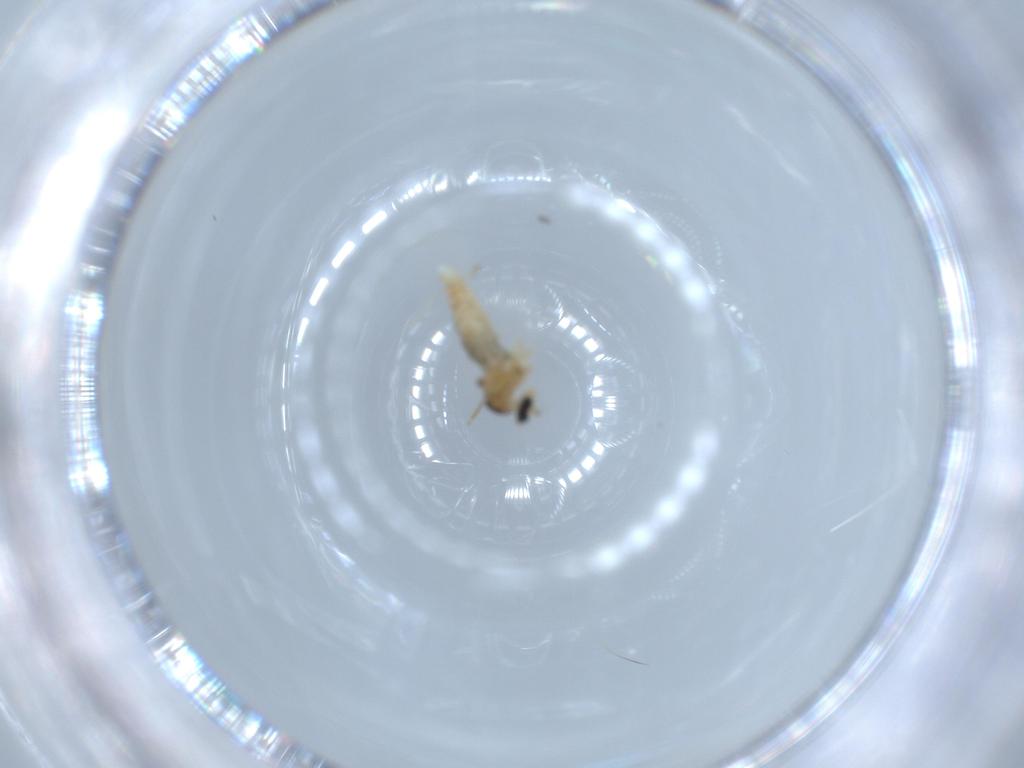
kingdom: Animalia
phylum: Arthropoda
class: Insecta
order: Diptera
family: Cecidomyiidae
